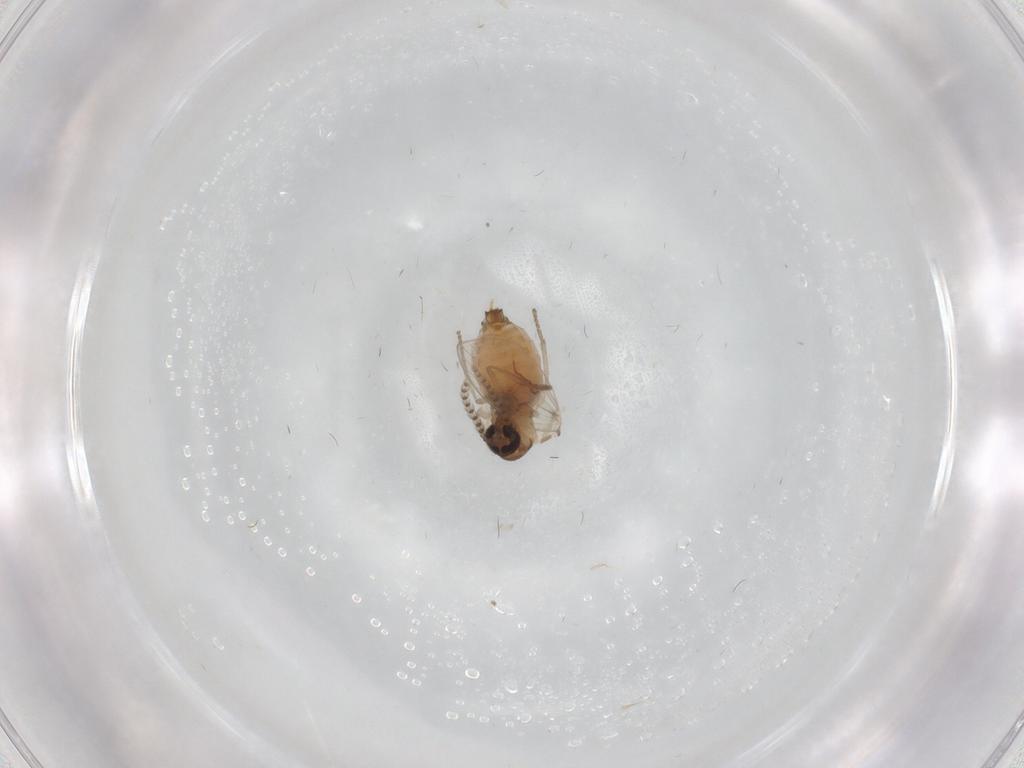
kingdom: Animalia
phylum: Arthropoda
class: Insecta
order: Diptera
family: Psychodidae
